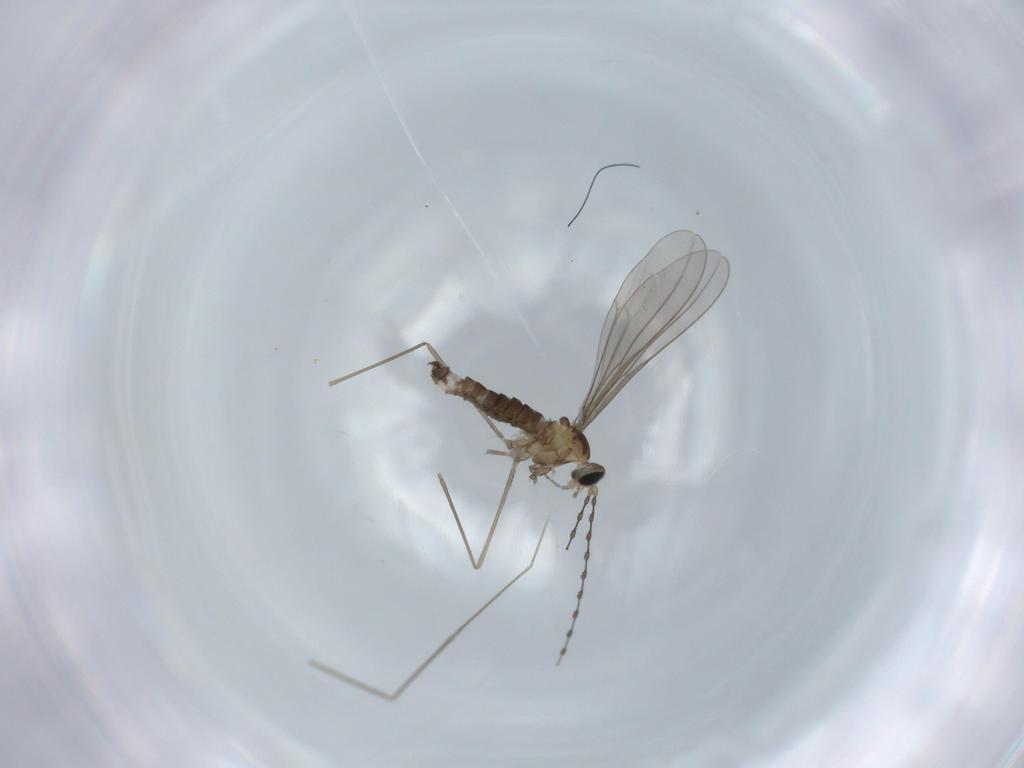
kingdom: Animalia
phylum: Arthropoda
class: Insecta
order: Diptera
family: Cecidomyiidae
